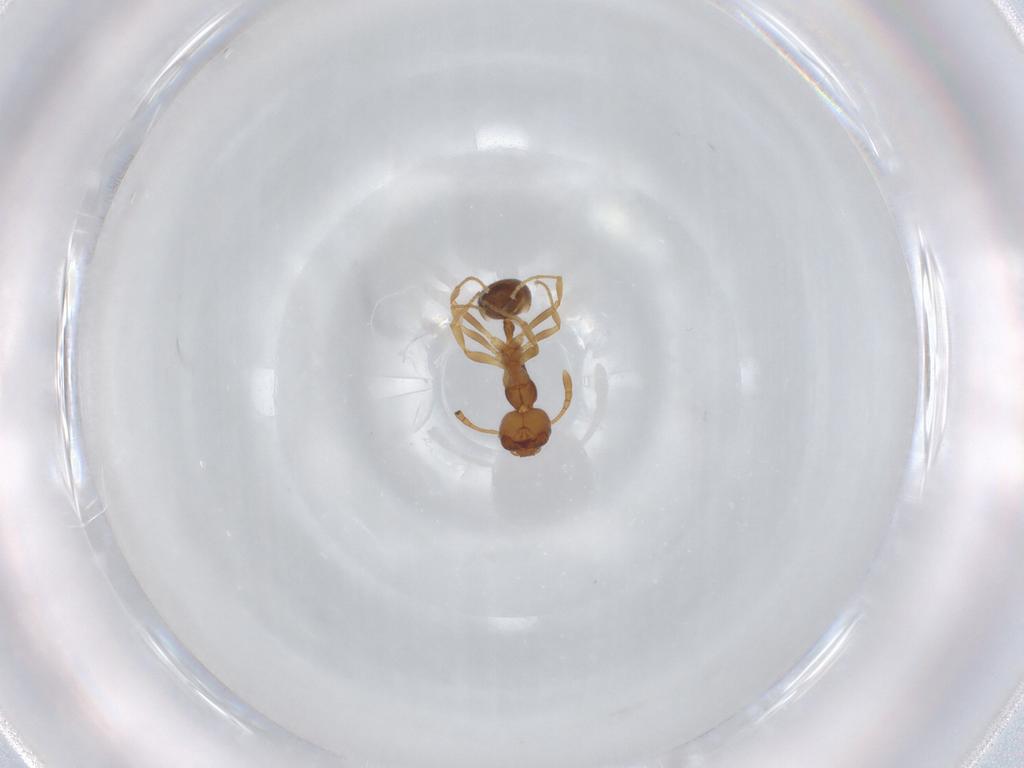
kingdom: Animalia
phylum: Arthropoda
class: Insecta
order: Hymenoptera
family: Formicidae
